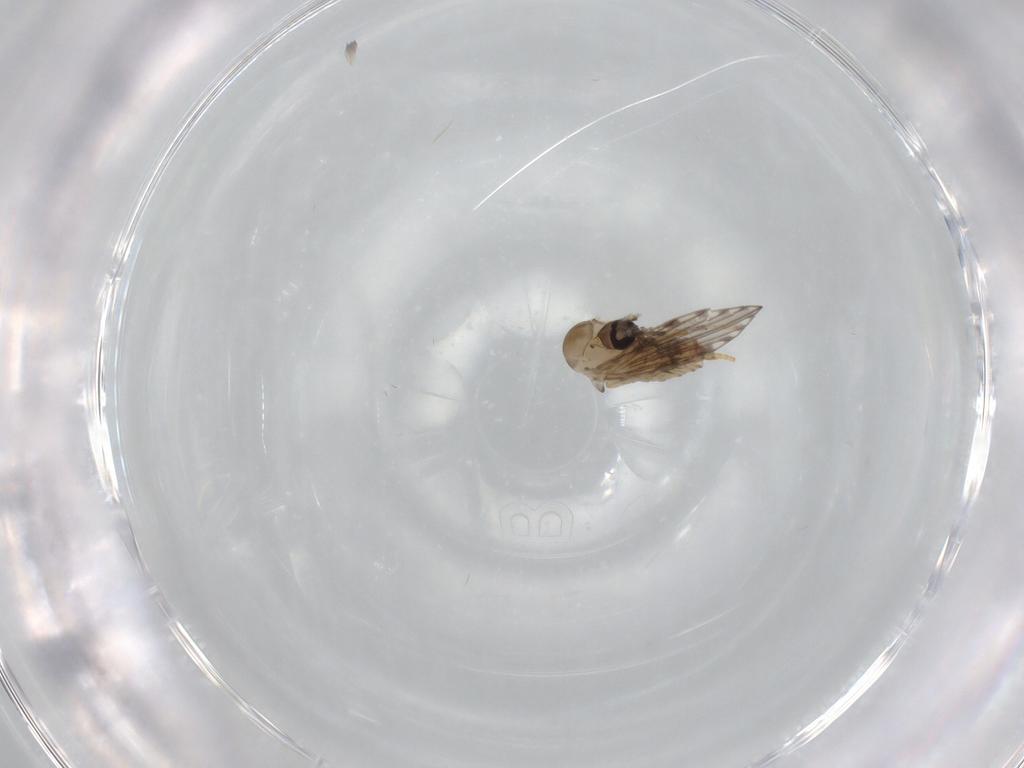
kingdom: Animalia
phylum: Arthropoda
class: Insecta
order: Diptera
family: Psychodidae
